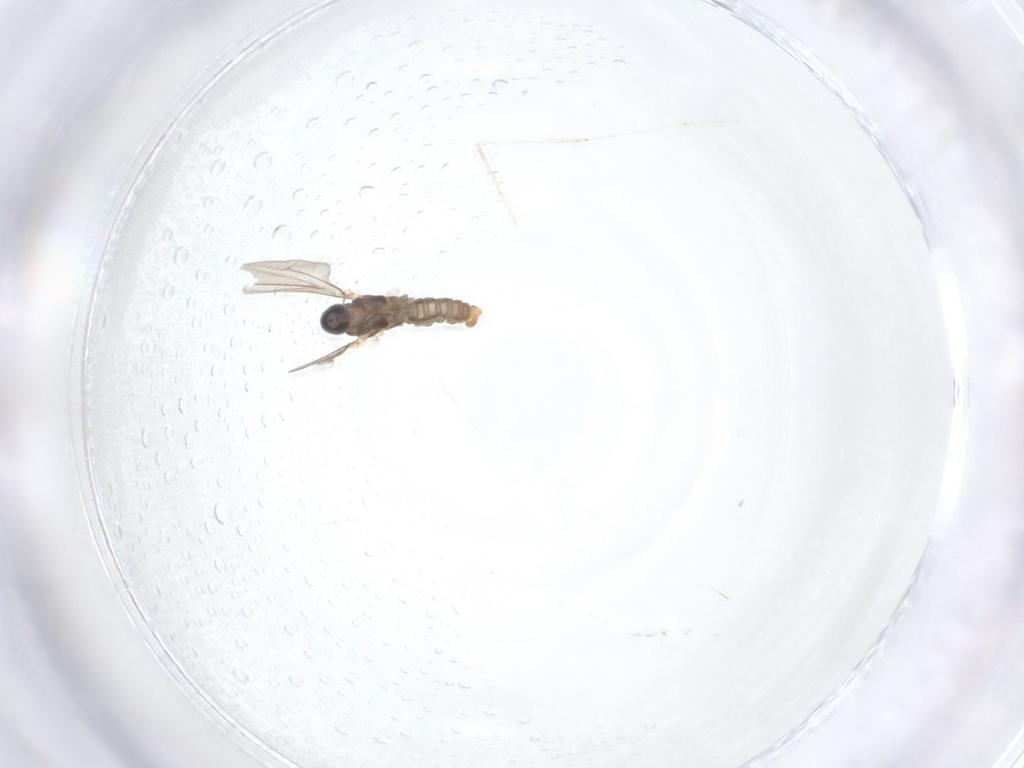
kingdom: Animalia
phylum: Arthropoda
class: Insecta
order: Diptera
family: Cecidomyiidae
